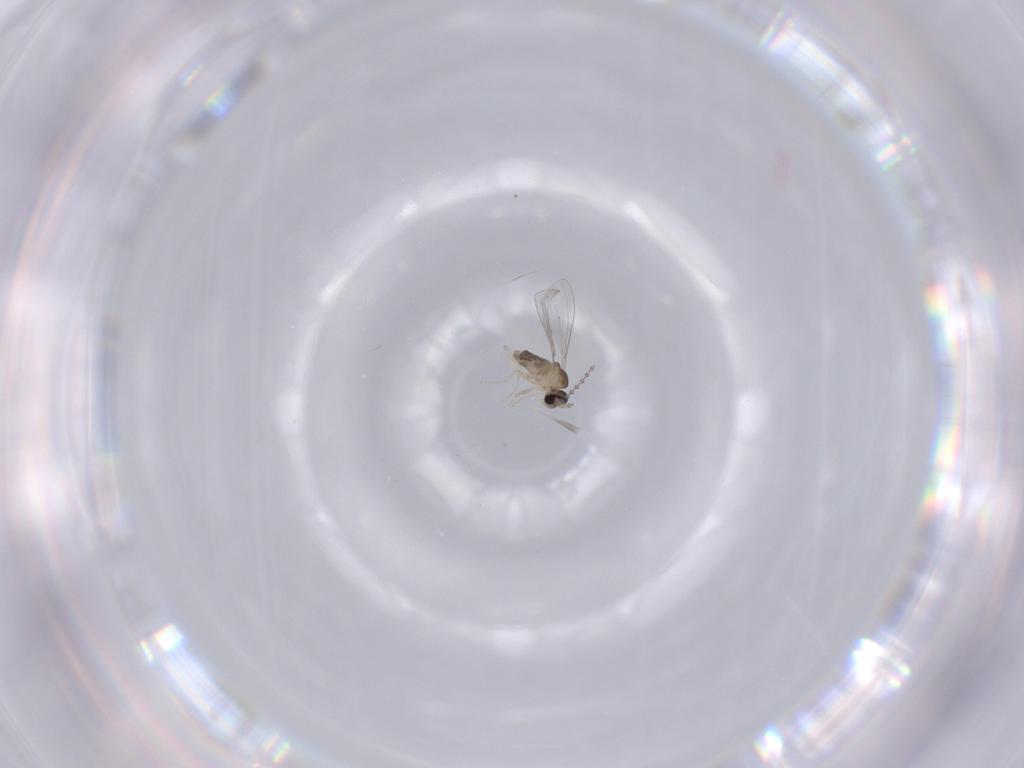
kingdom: Animalia
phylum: Arthropoda
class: Insecta
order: Diptera
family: Cecidomyiidae
